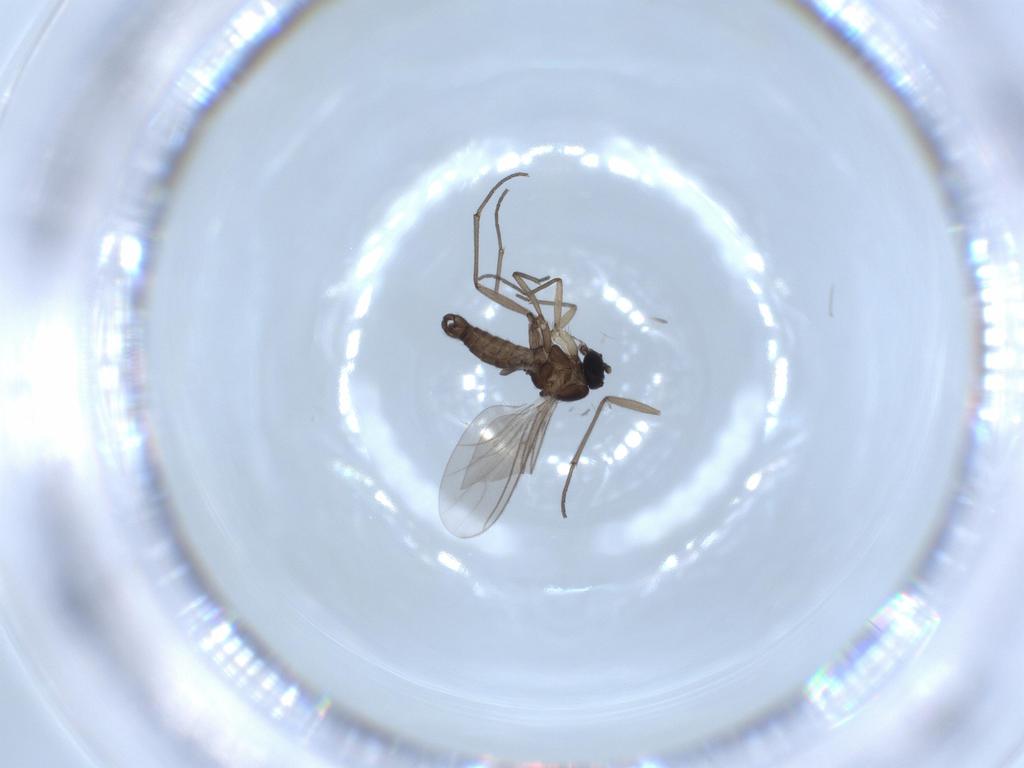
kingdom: Animalia
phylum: Arthropoda
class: Insecta
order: Diptera
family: Sciaridae
